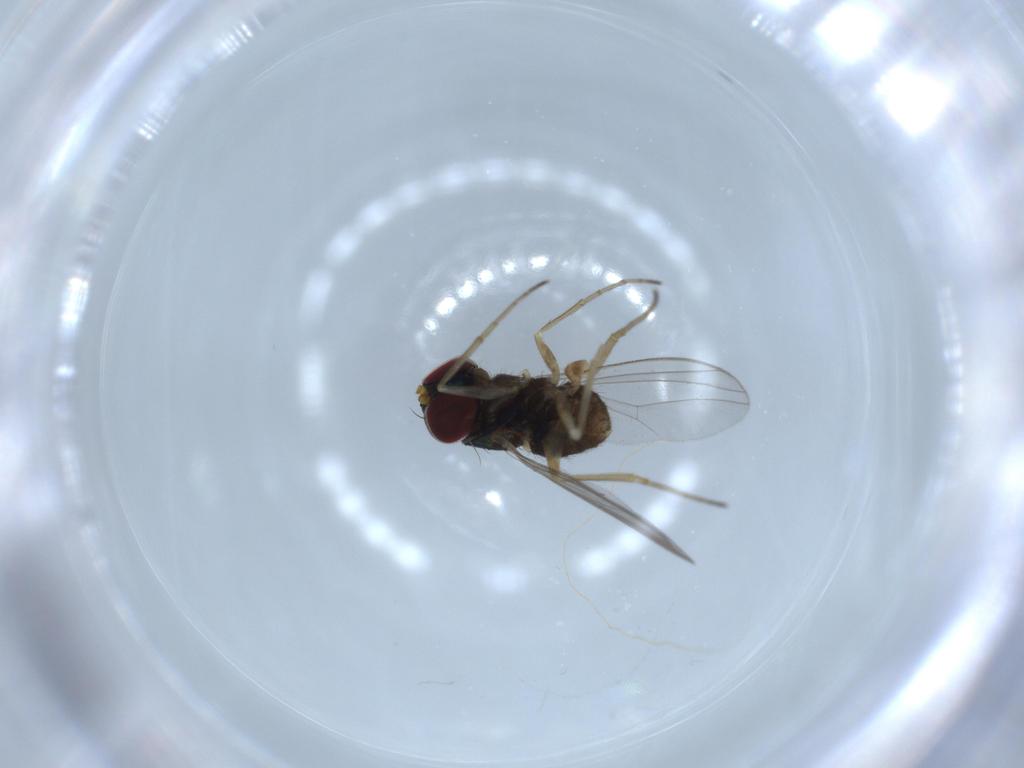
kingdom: Animalia
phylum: Arthropoda
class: Insecta
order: Diptera
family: Dolichopodidae
